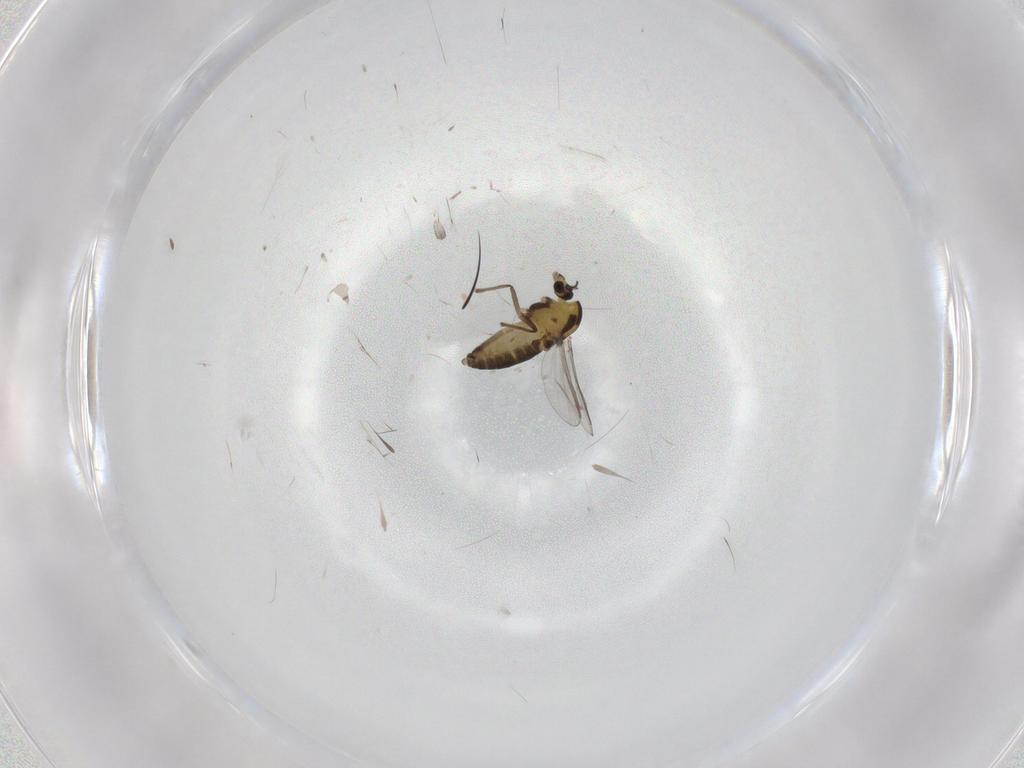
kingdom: Animalia
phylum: Arthropoda
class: Insecta
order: Diptera
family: Chironomidae
